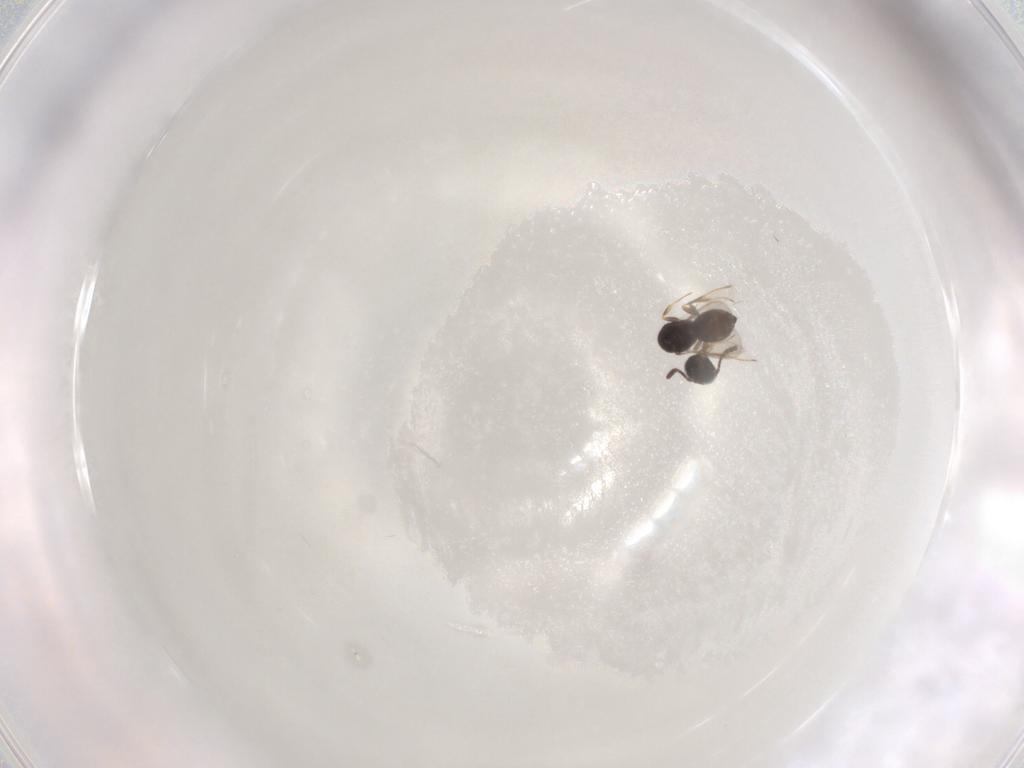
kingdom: Animalia
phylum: Arthropoda
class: Insecta
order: Hymenoptera
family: Scelionidae
